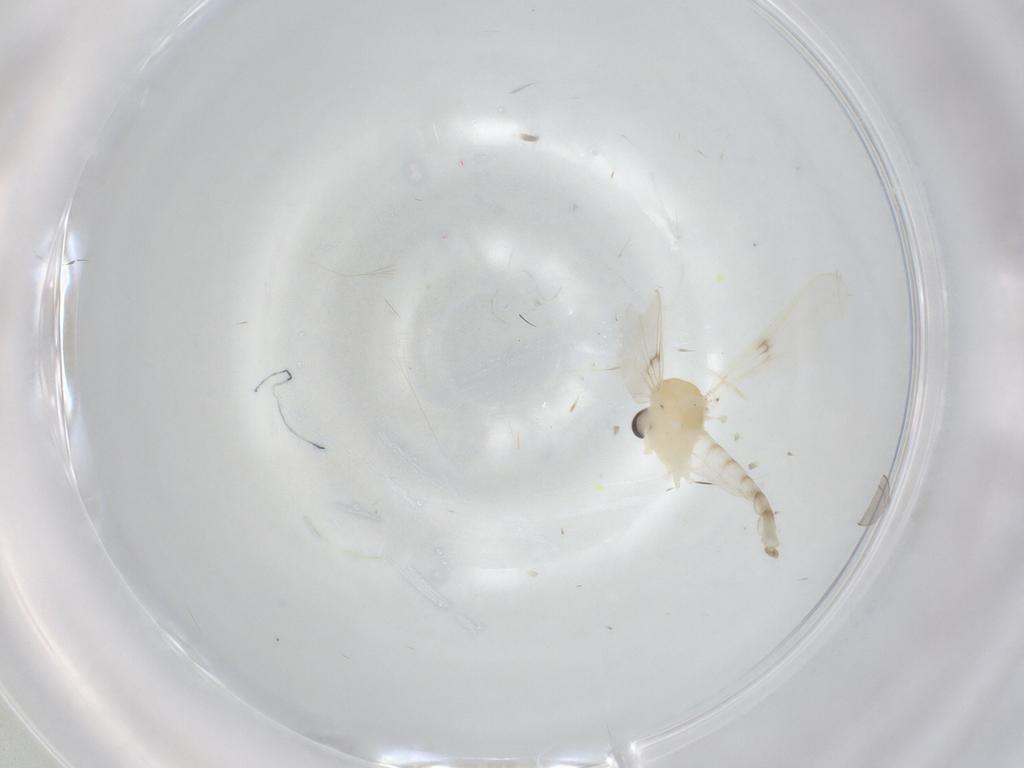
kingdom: Animalia
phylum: Arthropoda
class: Insecta
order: Diptera
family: Cecidomyiidae
